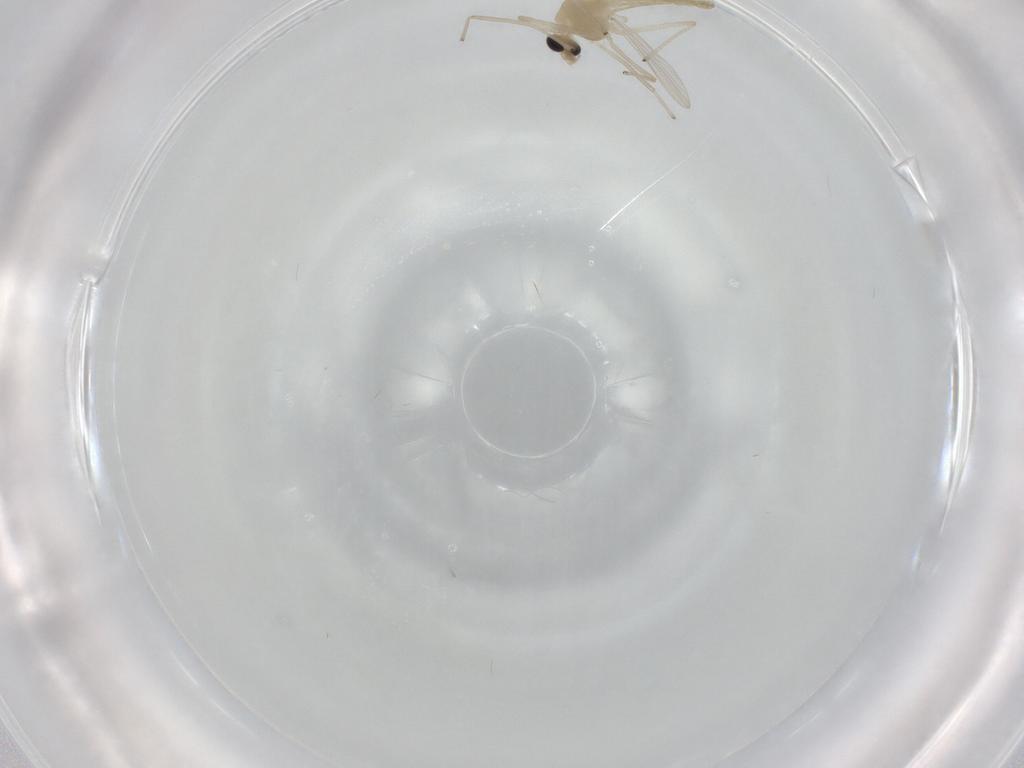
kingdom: Animalia
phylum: Arthropoda
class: Insecta
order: Diptera
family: Chironomidae
